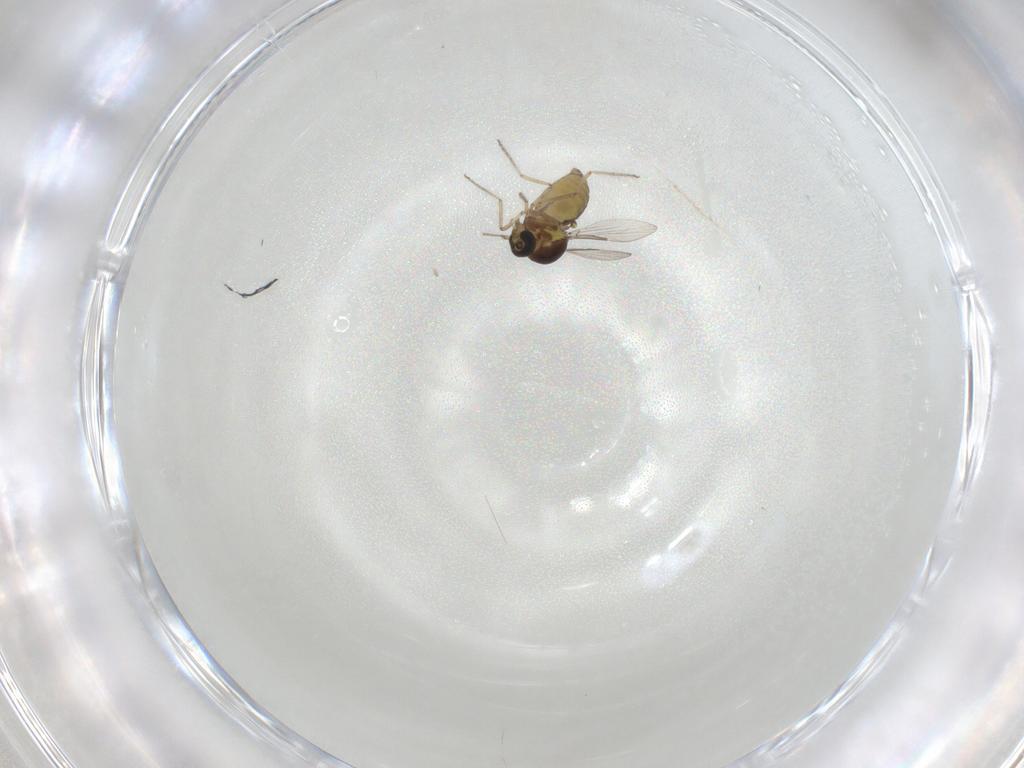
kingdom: Animalia
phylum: Arthropoda
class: Insecta
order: Diptera
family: Ceratopogonidae
